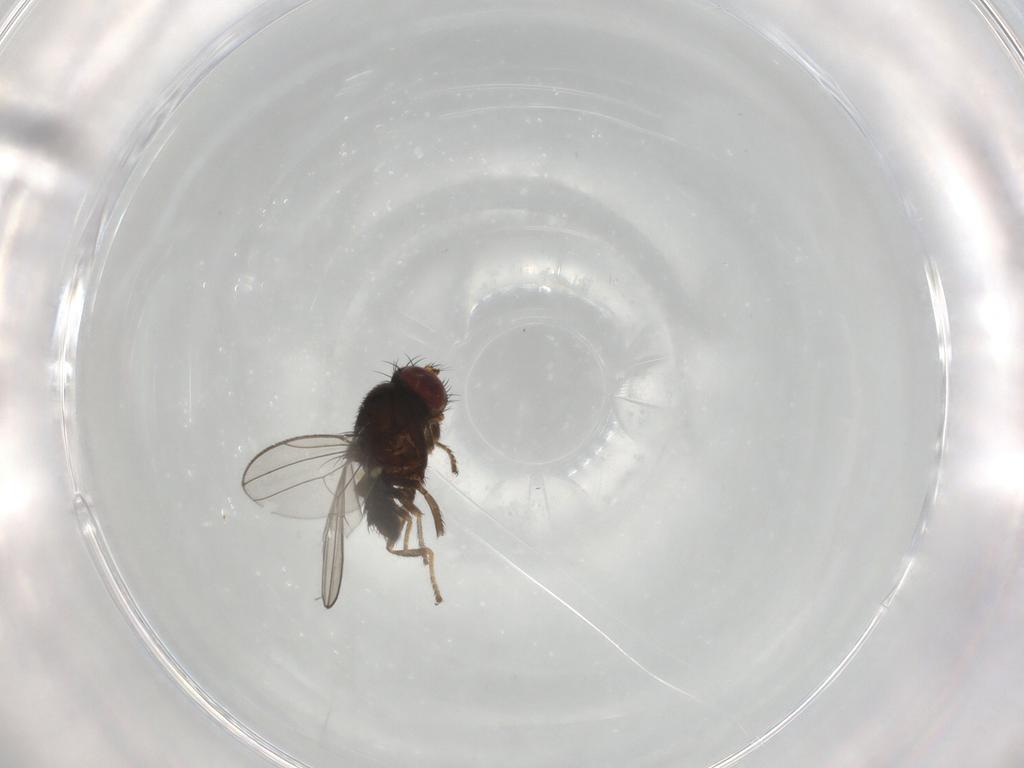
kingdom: Animalia
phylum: Arthropoda
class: Insecta
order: Diptera
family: Ephydridae
